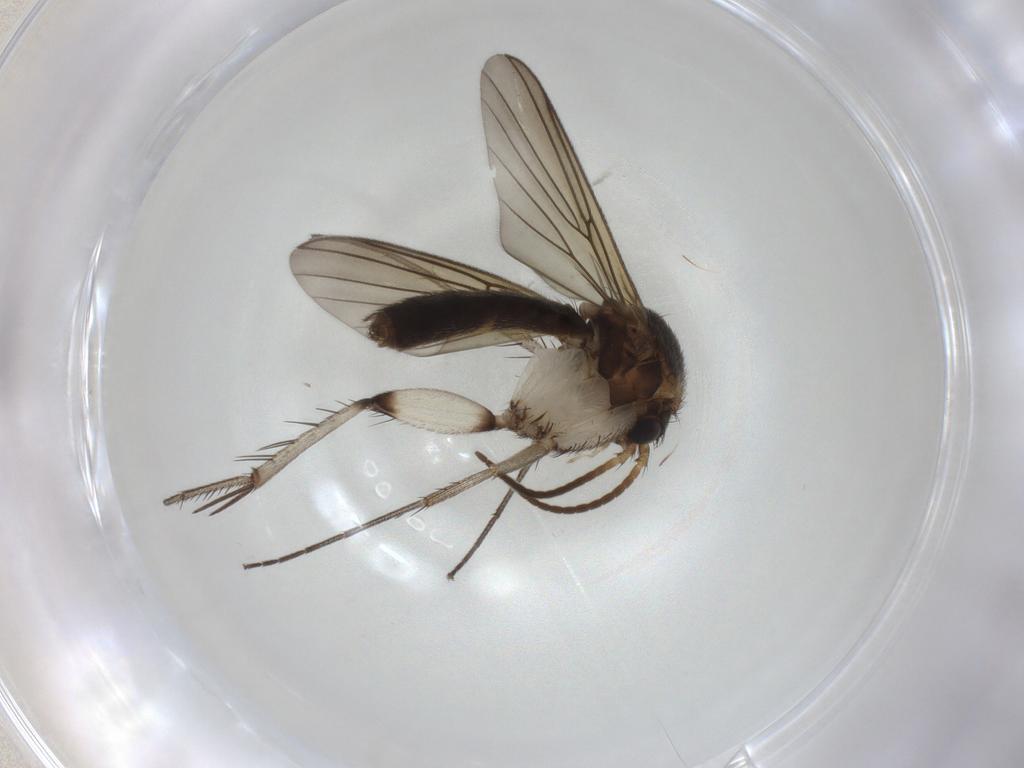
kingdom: Animalia
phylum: Arthropoda
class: Insecta
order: Diptera
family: Mycetophilidae
